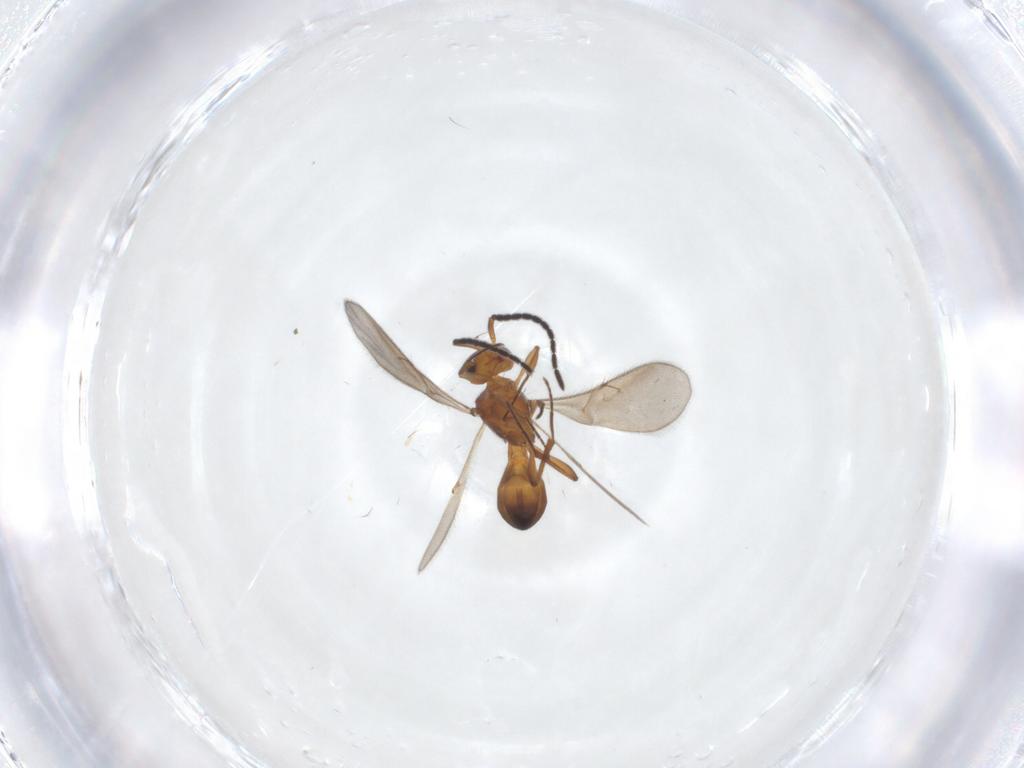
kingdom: Animalia
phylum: Arthropoda
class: Insecta
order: Hymenoptera
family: Scelionidae
